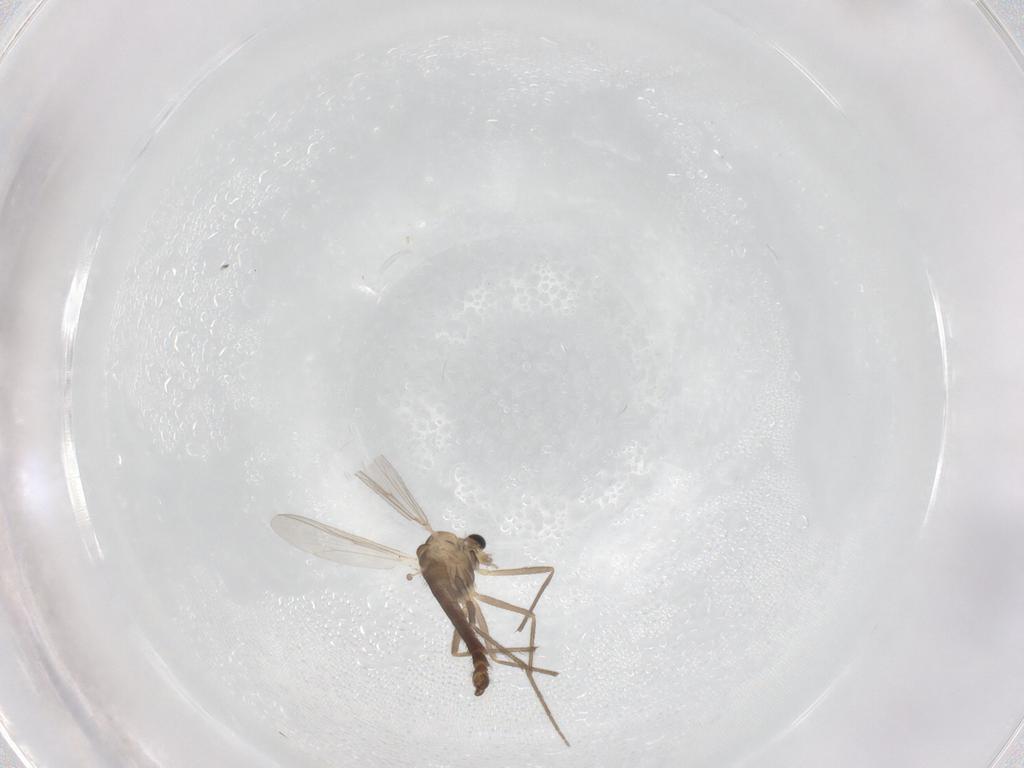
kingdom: Animalia
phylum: Arthropoda
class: Insecta
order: Diptera
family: Chironomidae
